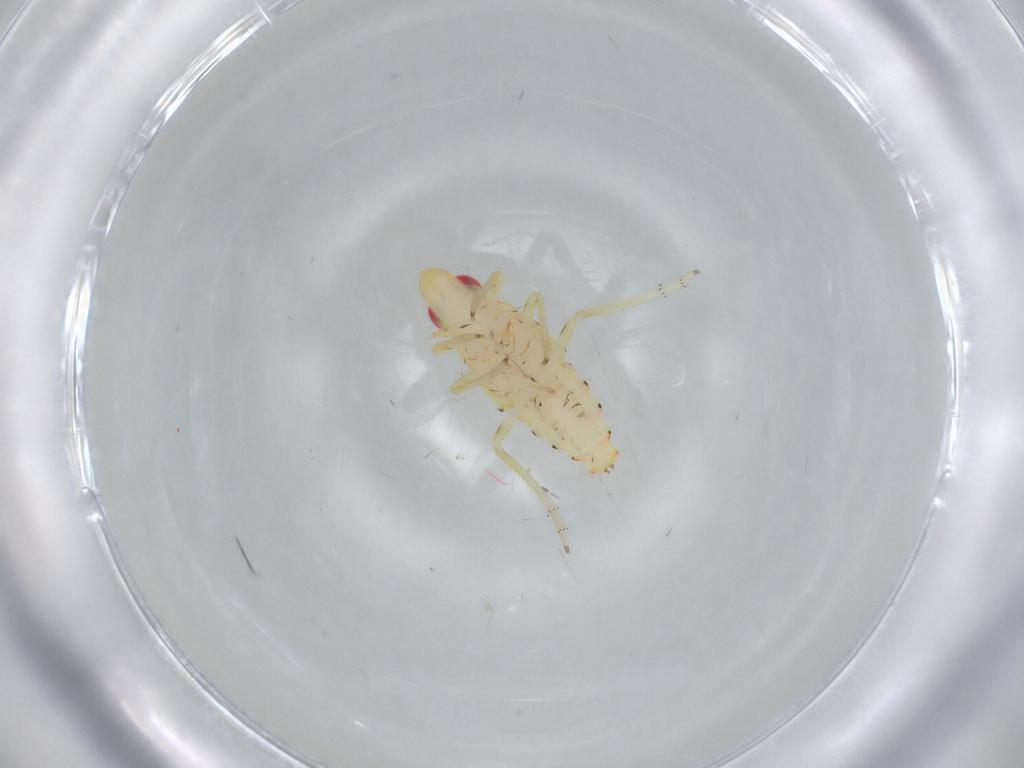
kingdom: Animalia
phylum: Arthropoda
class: Insecta
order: Hemiptera
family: Tropiduchidae
